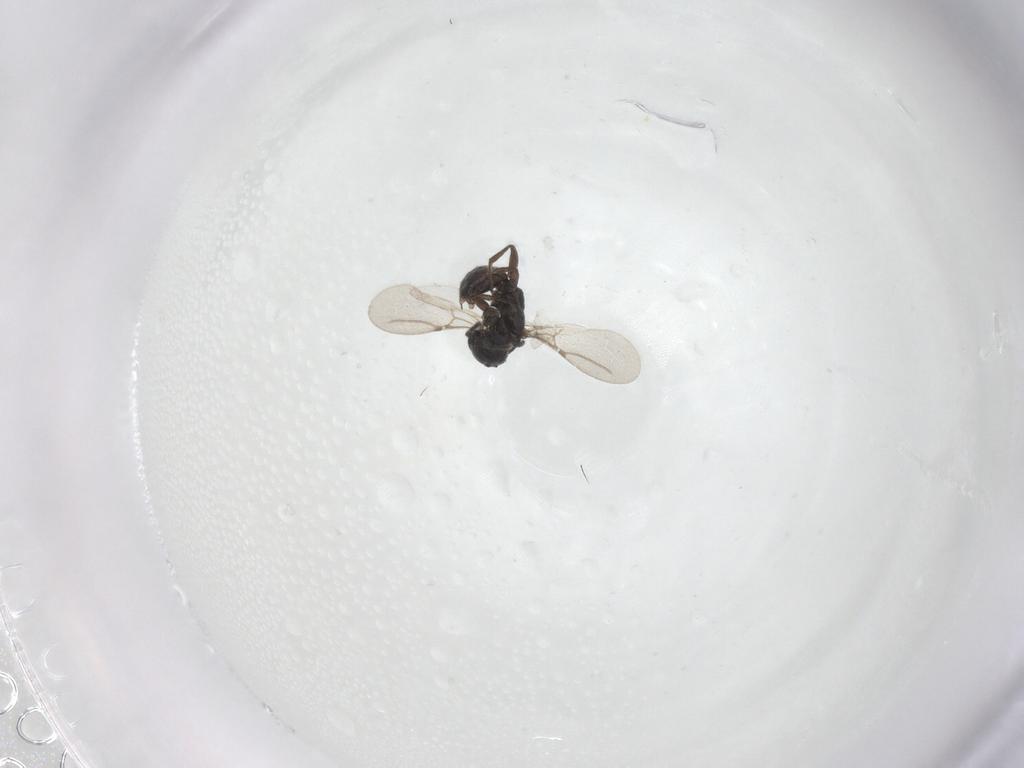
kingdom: Animalia
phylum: Arthropoda
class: Insecta
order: Hymenoptera
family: Bethylidae
